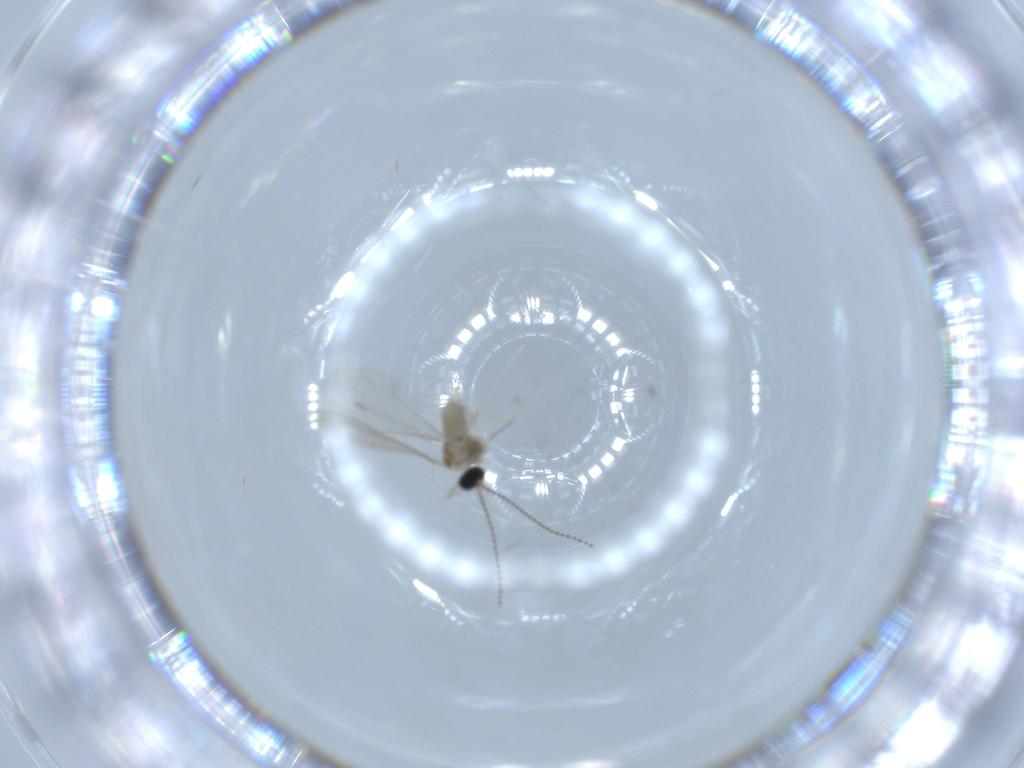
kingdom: Animalia
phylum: Arthropoda
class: Insecta
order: Diptera
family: Cecidomyiidae
